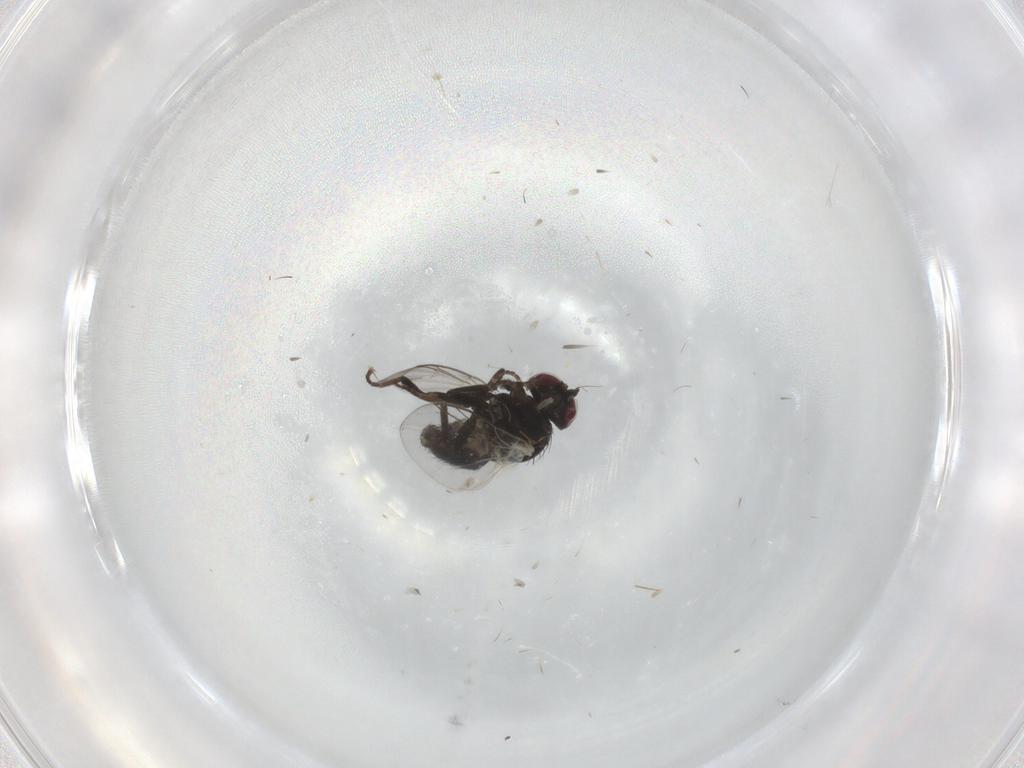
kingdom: Animalia
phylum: Arthropoda
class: Insecta
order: Diptera
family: Agromyzidae
